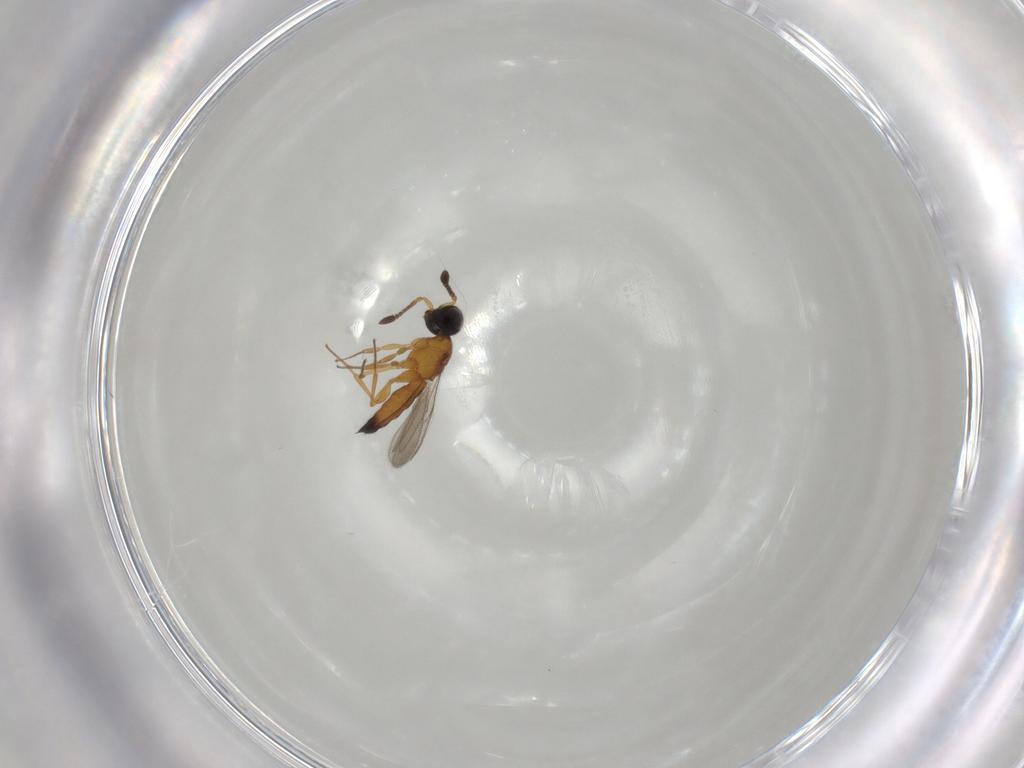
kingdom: Animalia
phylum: Arthropoda
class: Insecta
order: Hymenoptera
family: Scelionidae
